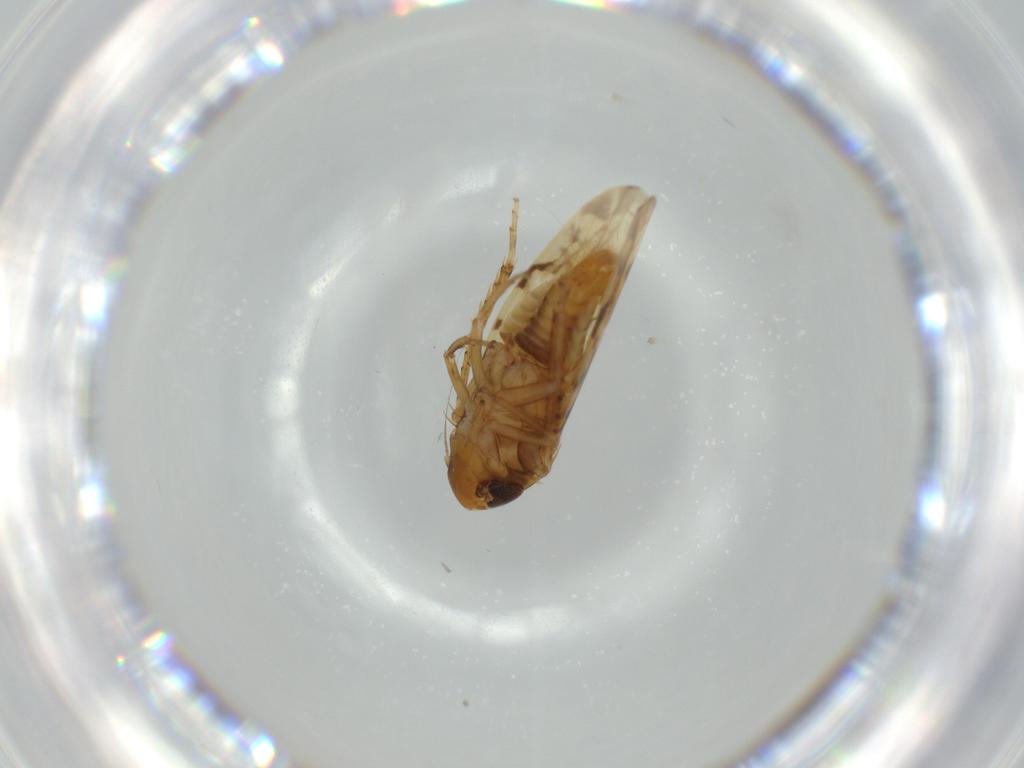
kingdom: Animalia
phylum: Arthropoda
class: Insecta
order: Hemiptera
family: Cicadellidae
